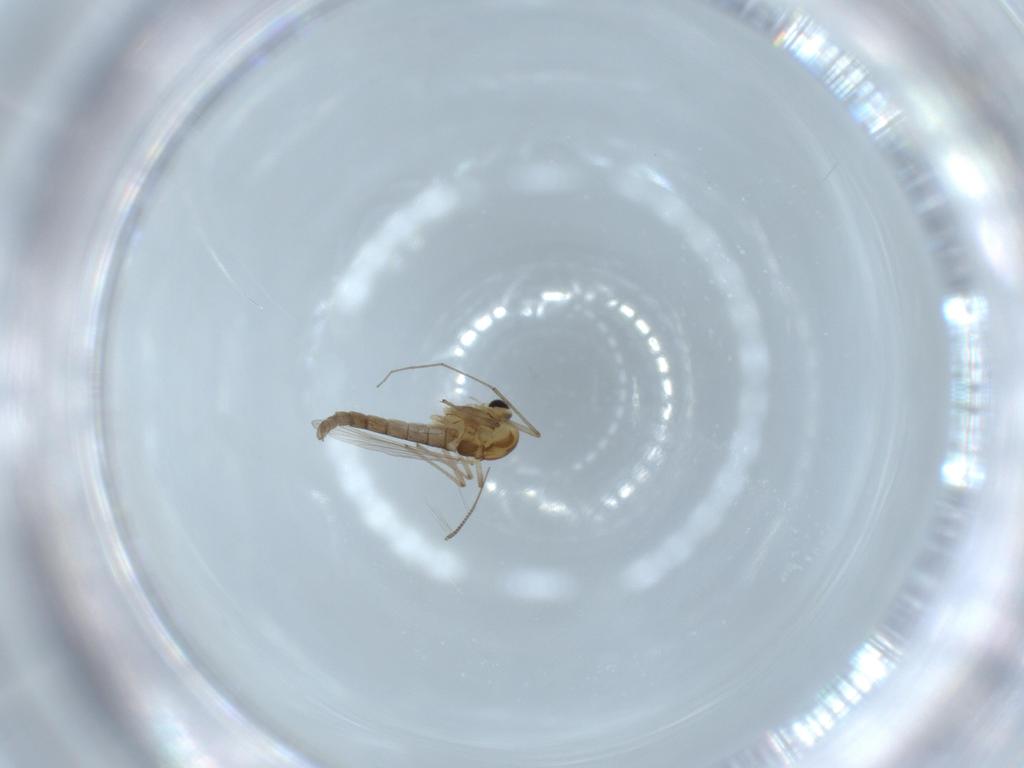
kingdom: Animalia
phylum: Arthropoda
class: Insecta
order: Diptera
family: Chironomidae
